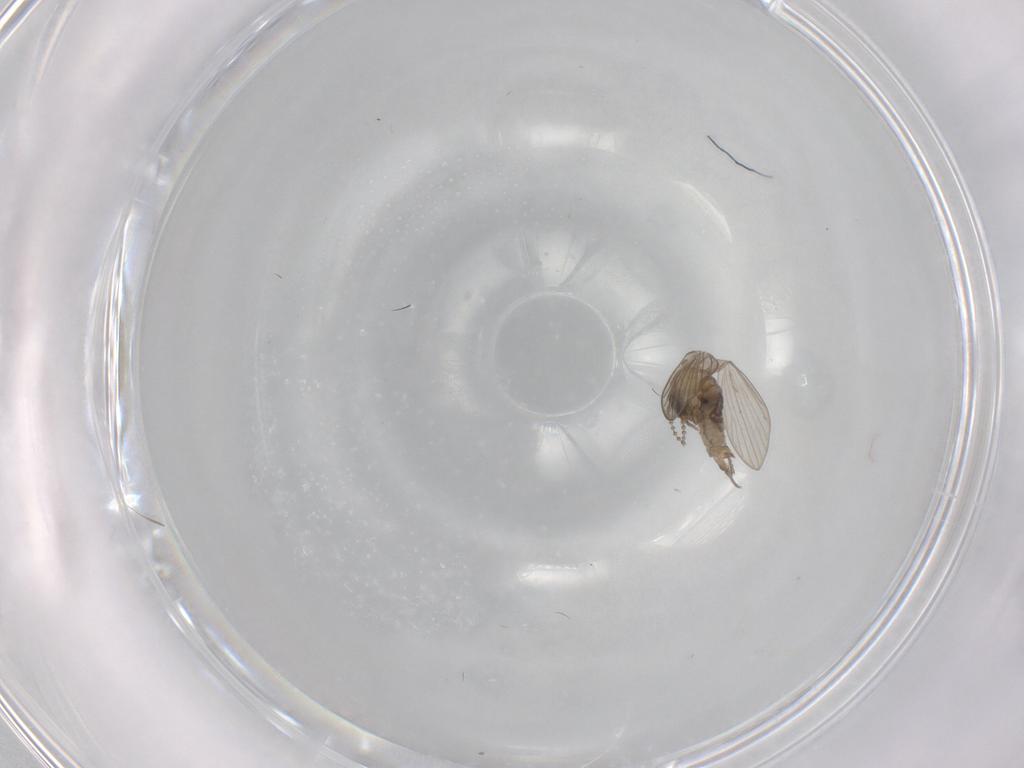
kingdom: Animalia
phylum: Arthropoda
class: Insecta
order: Diptera
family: Psychodidae
